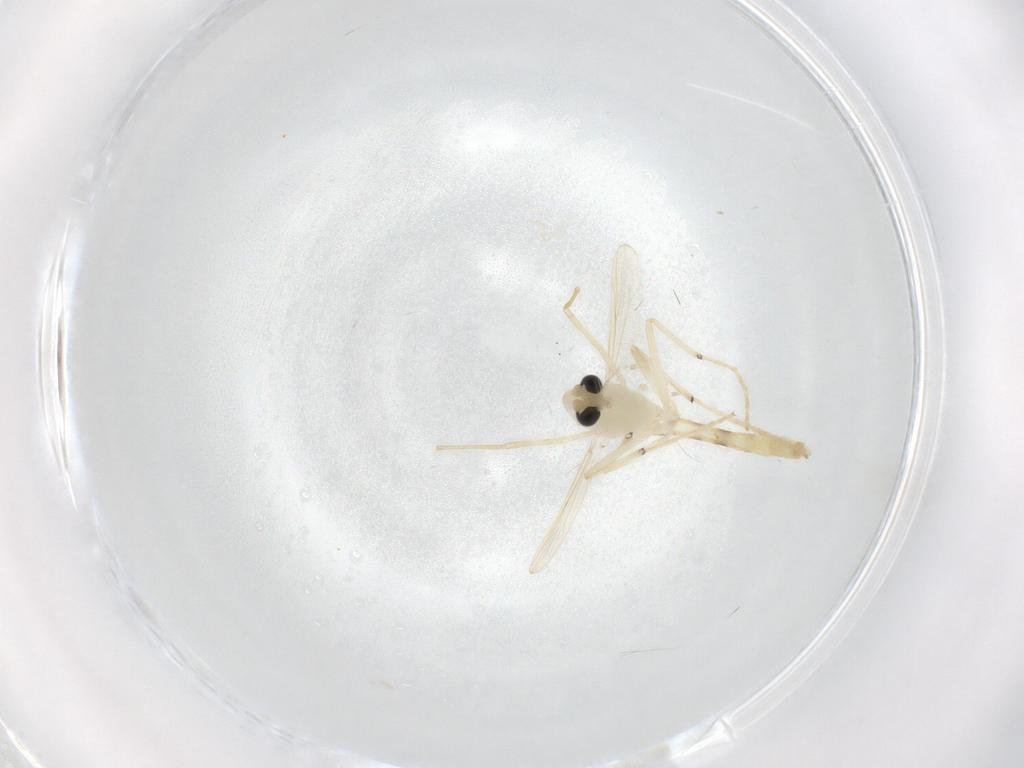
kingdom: Animalia
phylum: Arthropoda
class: Insecta
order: Diptera
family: Chironomidae
